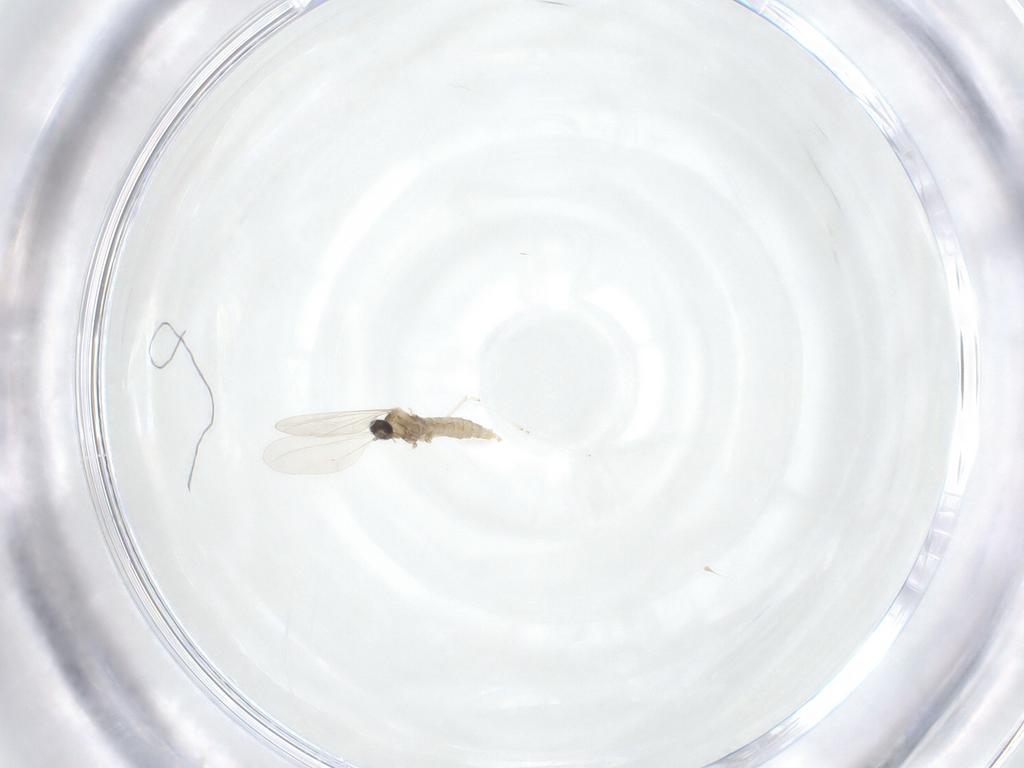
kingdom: Animalia
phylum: Arthropoda
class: Insecta
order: Diptera
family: Cecidomyiidae
